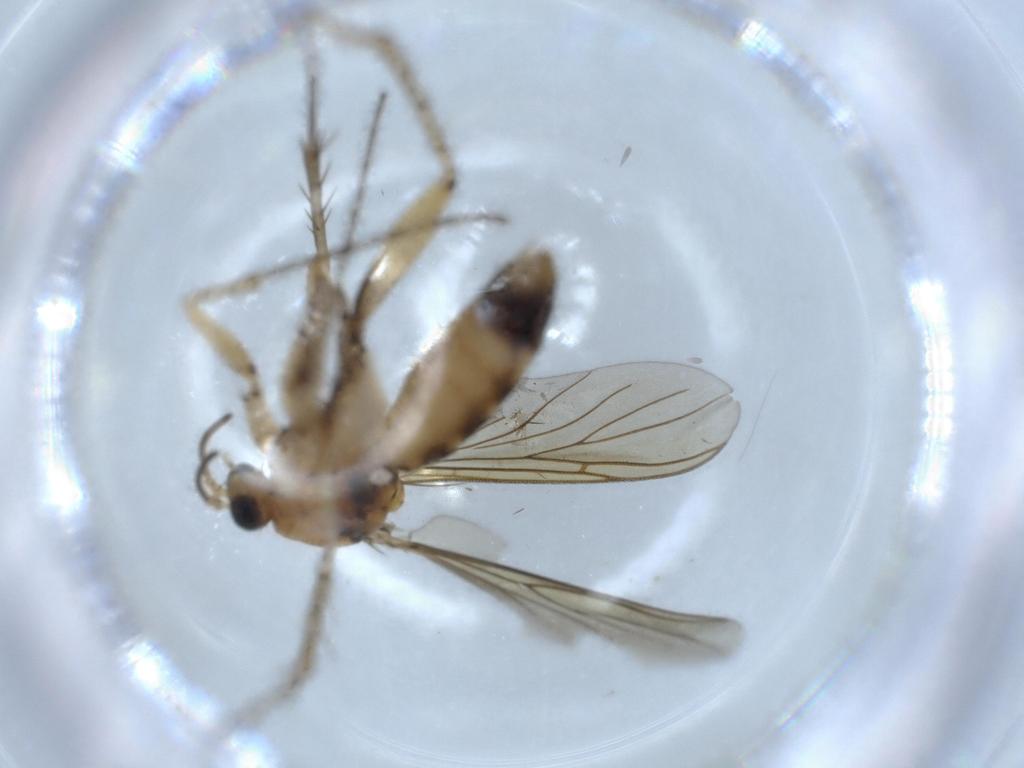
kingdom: Animalia
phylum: Arthropoda
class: Insecta
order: Diptera
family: Mycetophilidae
